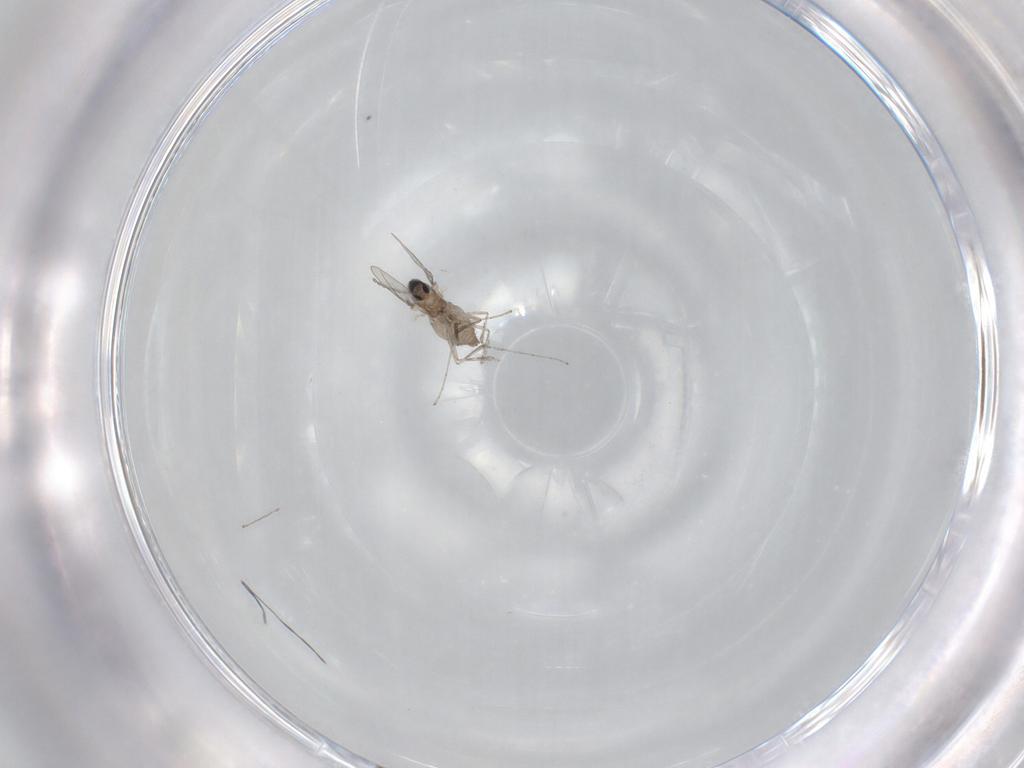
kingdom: Animalia
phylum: Arthropoda
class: Insecta
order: Diptera
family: Cecidomyiidae
